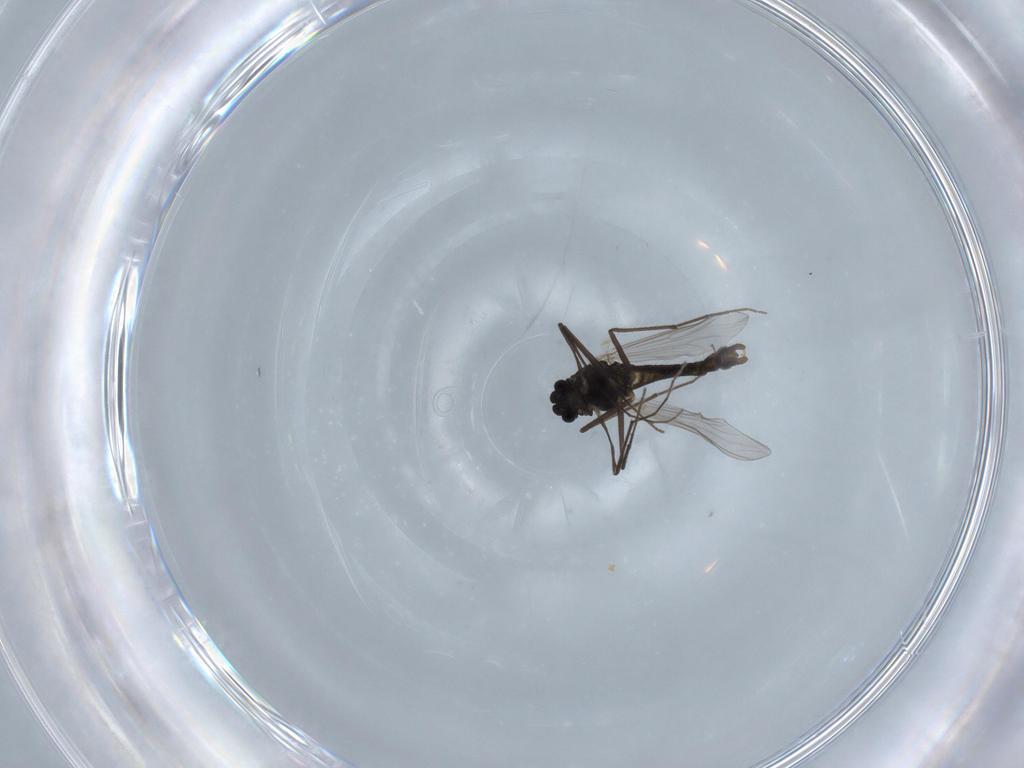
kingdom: Animalia
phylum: Arthropoda
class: Insecta
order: Diptera
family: Chironomidae
